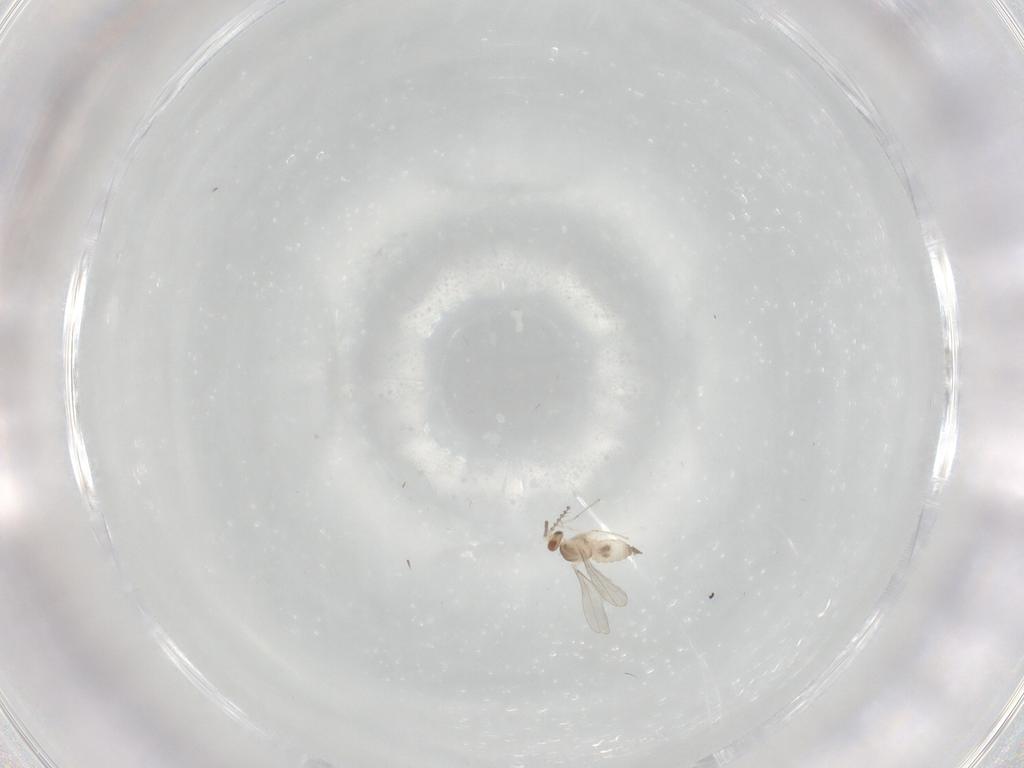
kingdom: Animalia
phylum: Arthropoda
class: Insecta
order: Diptera
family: Cecidomyiidae
